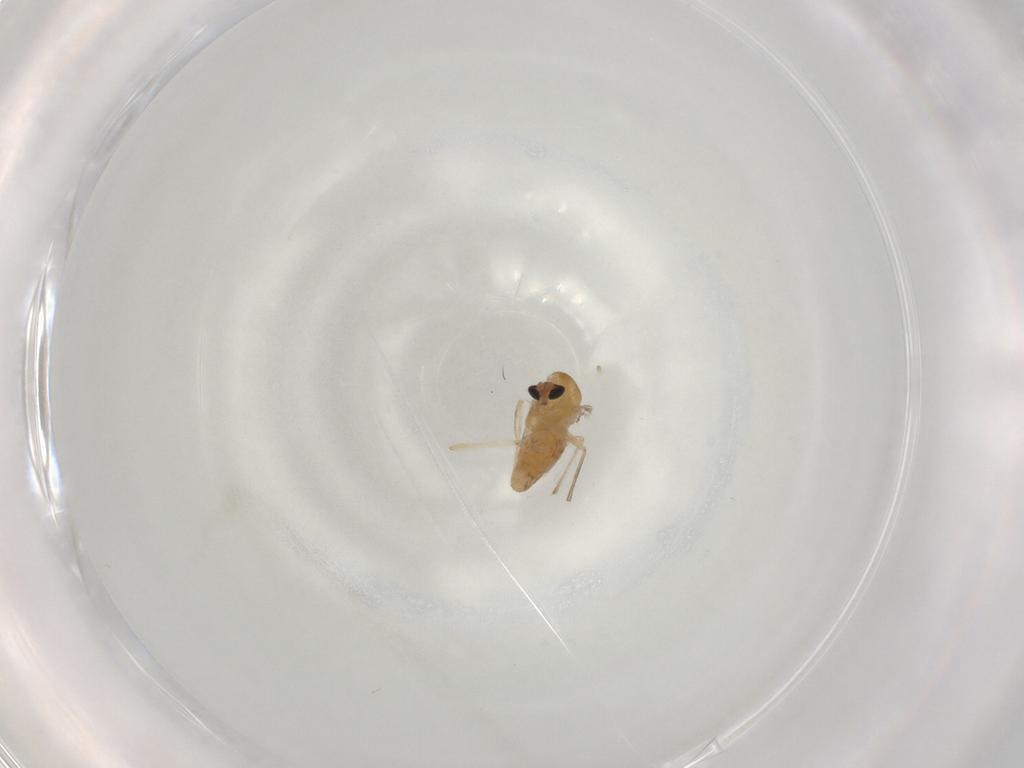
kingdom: Animalia
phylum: Arthropoda
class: Insecta
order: Diptera
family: Chironomidae
